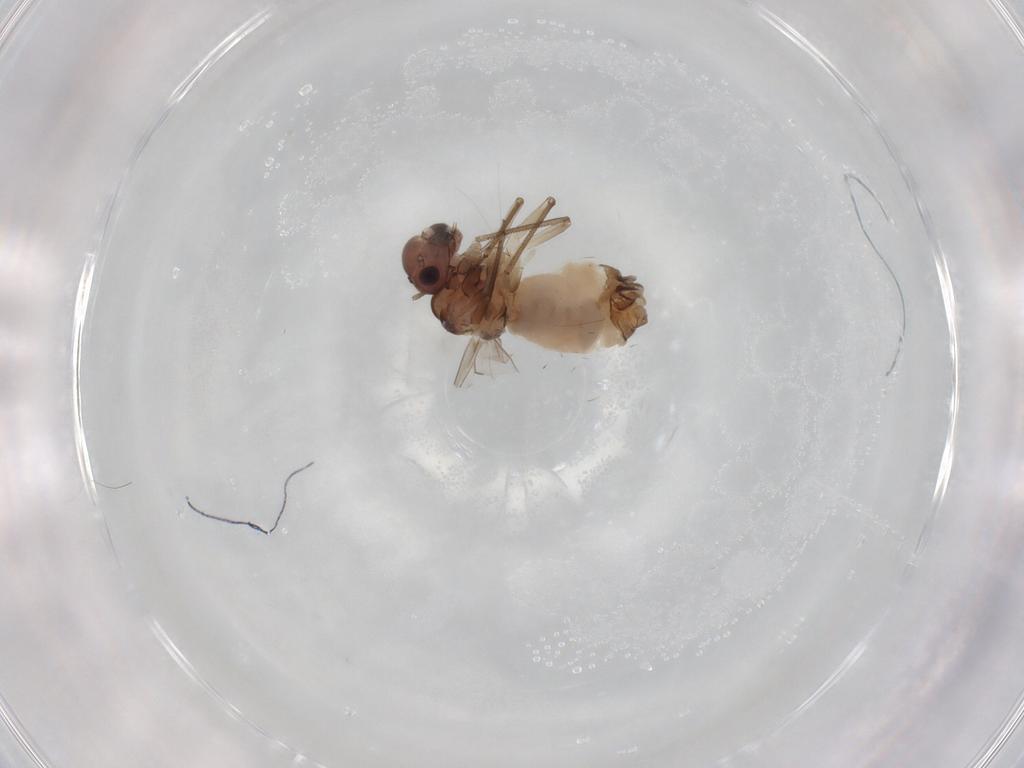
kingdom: Animalia
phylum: Arthropoda
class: Insecta
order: Psocodea
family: Peripsocidae
